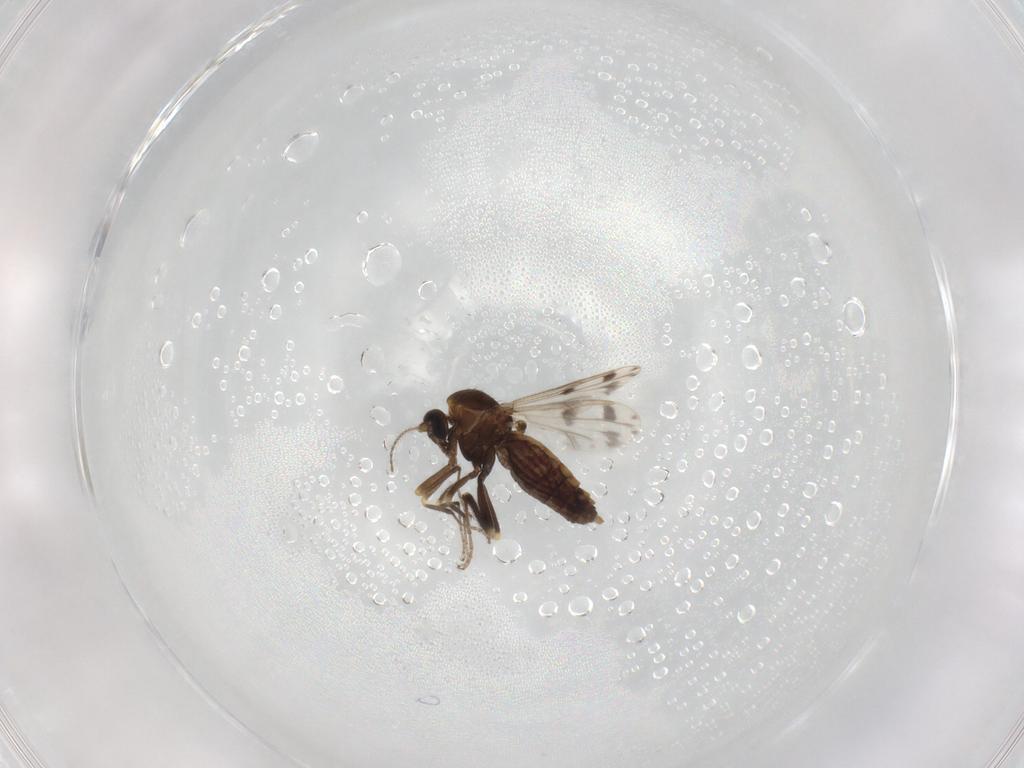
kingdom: Animalia
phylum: Arthropoda
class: Insecta
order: Diptera
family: Ceratopogonidae
